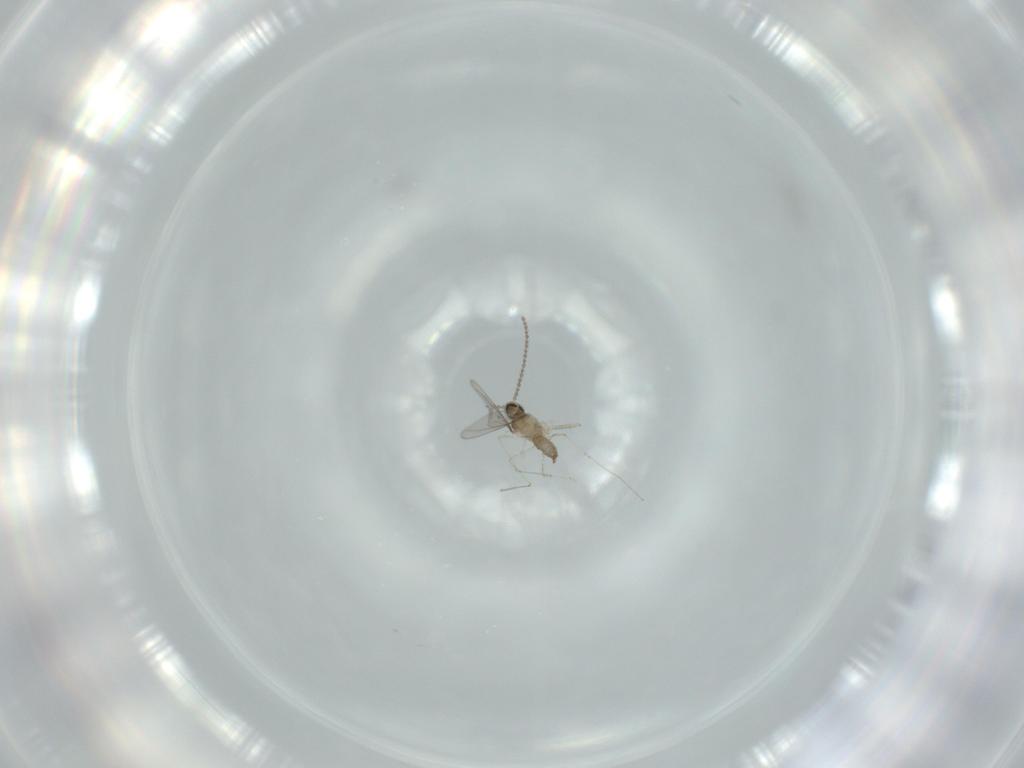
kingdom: Animalia
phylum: Arthropoda
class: Insecta
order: Diptera
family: Cecidomyiidae
